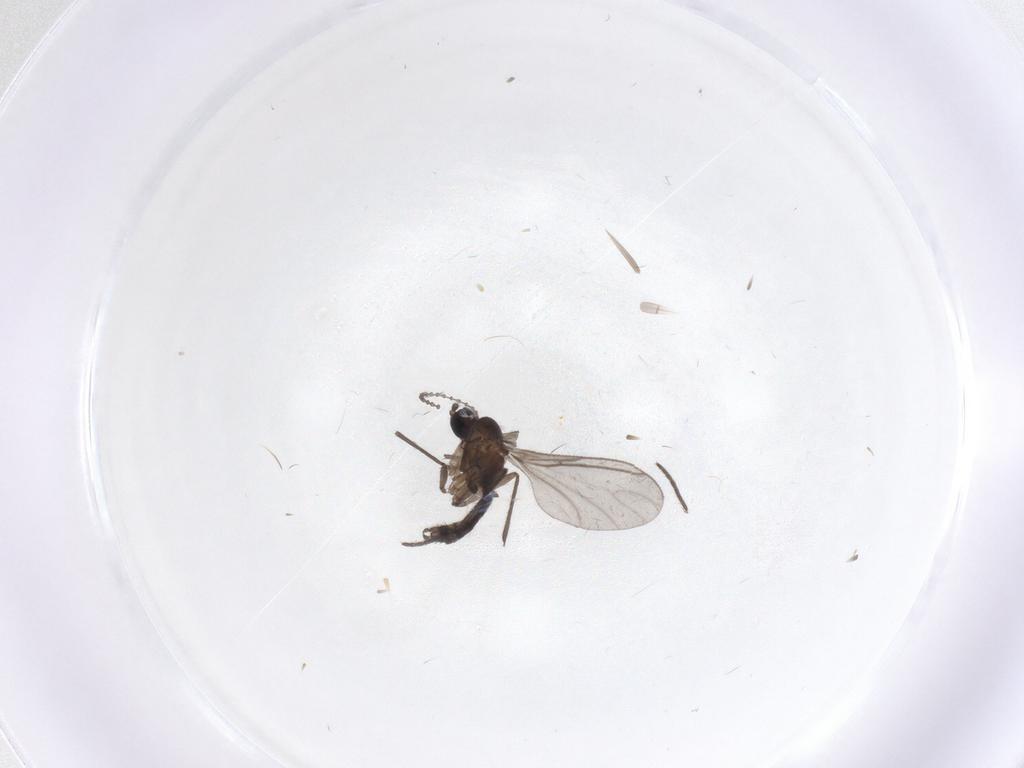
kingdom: Animalia
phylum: Arthropoda
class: Insecta
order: Diptera
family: Sciaridae
